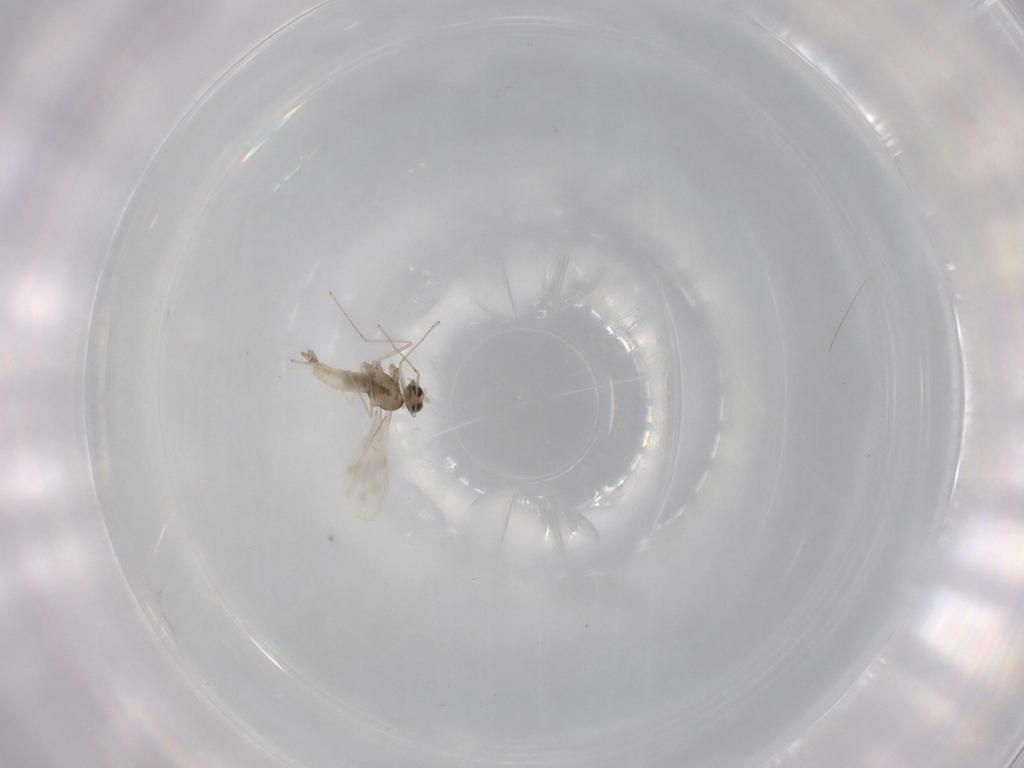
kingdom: Animalia
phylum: Arthropoda
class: Insecta
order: Diptera
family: Cecidomyiidae
